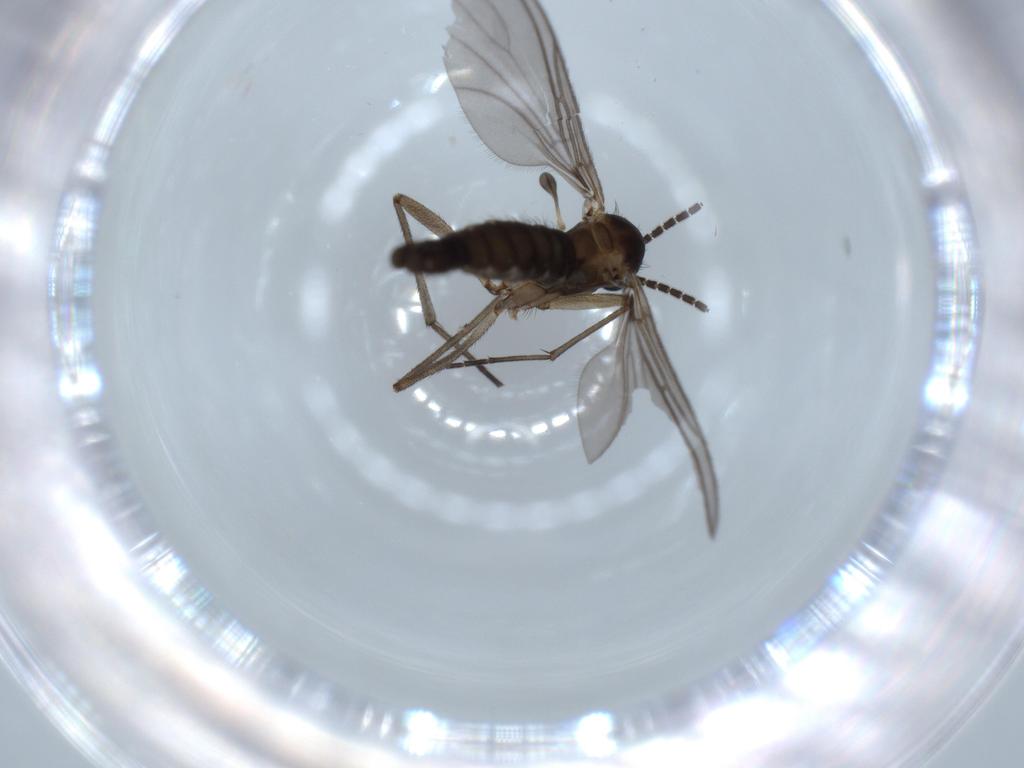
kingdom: Animalia
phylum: Arthropoda
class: Insecta
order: Diptera
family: Sciaridae
